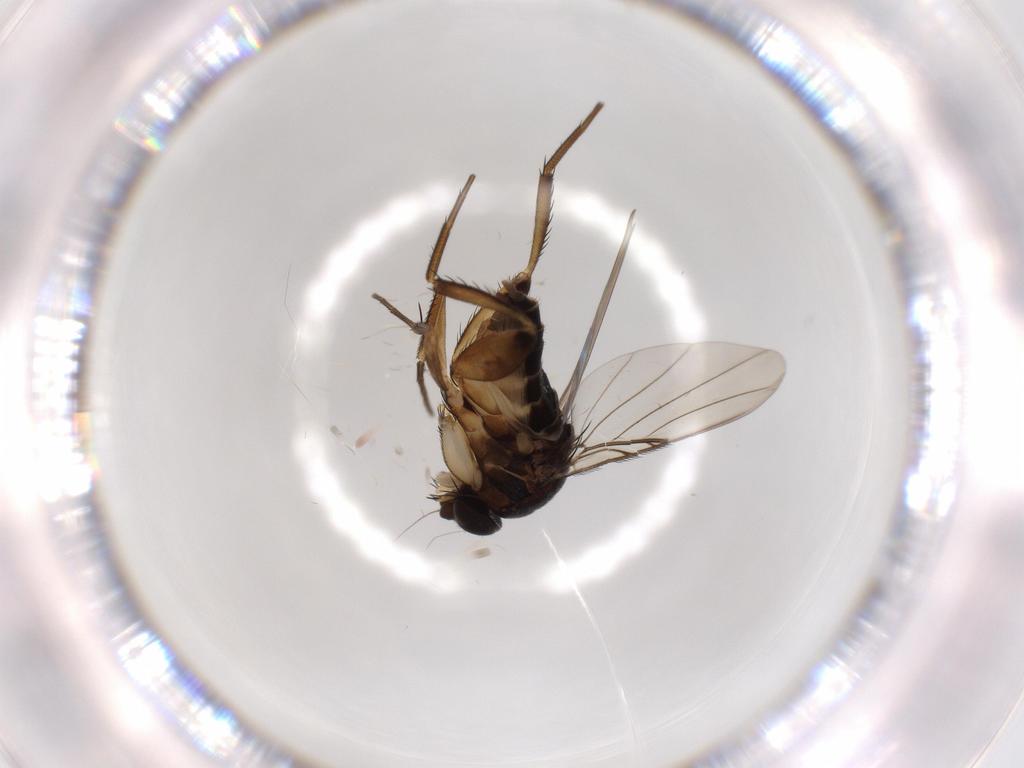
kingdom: Animalia
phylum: Arthropoda
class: Insecta
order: Diptera
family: Phoridae
